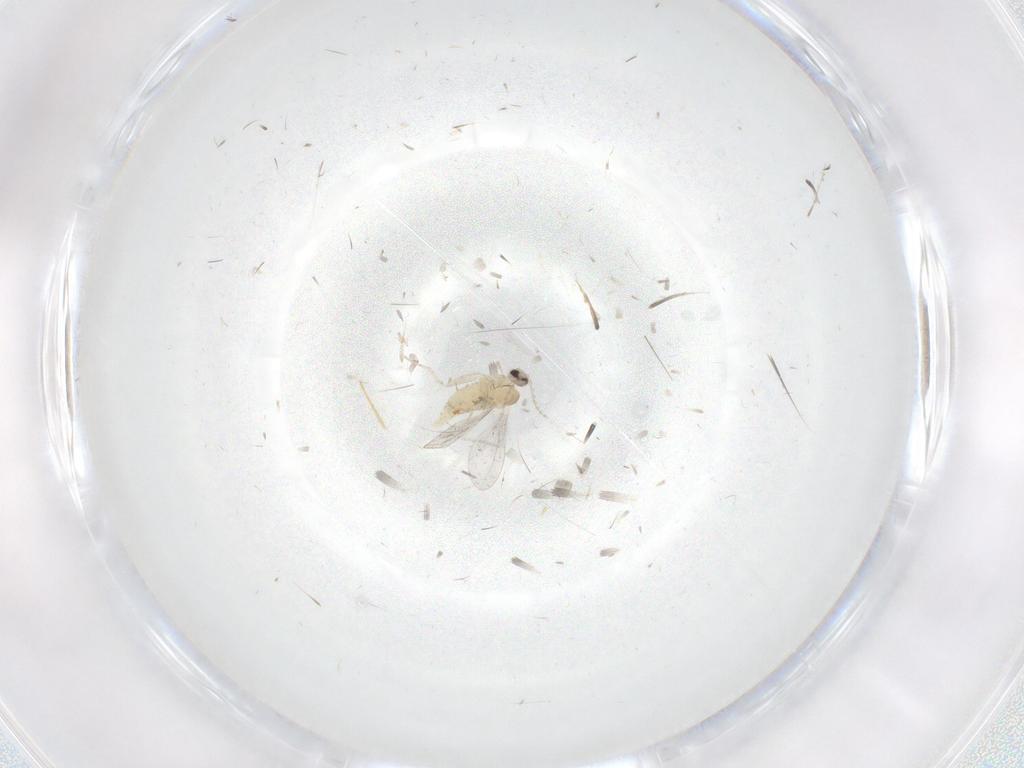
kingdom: Animalia
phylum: Arthropoda
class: Insecta
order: Diptera
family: Cecidomyiidae
